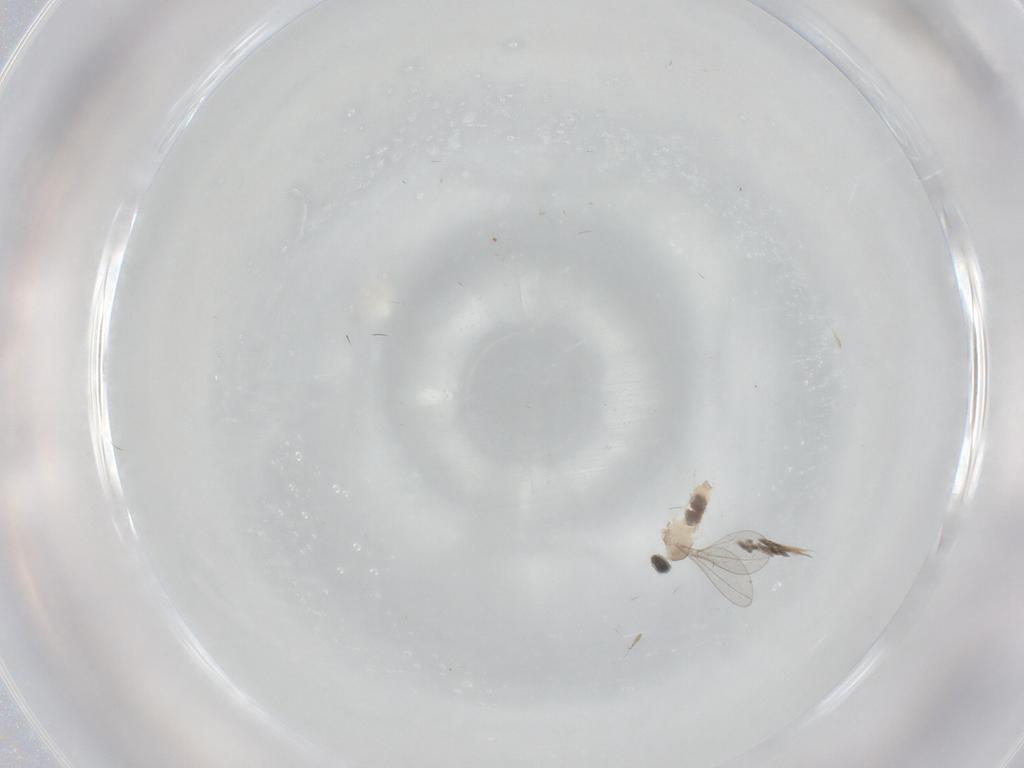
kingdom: Animalia
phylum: Arthropoda
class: Insecta
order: Diptera
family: Cecidomyiidae
